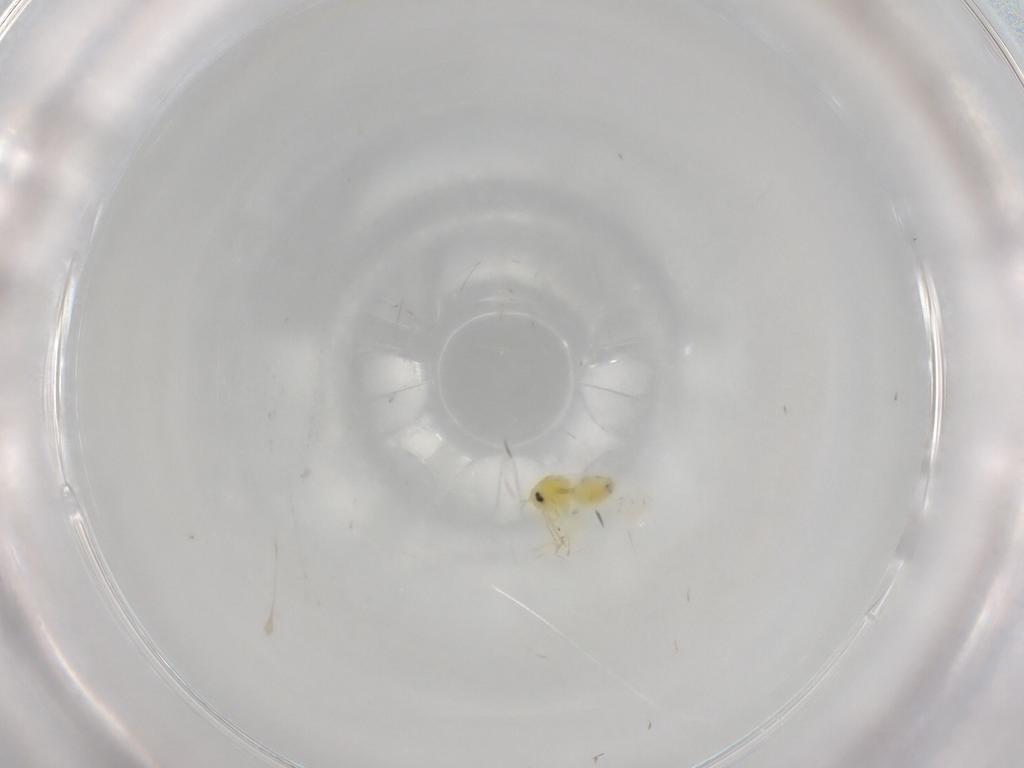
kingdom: Animalia
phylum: Arthropoda
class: Insecta
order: Hemiptera
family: Aleyrodidae
